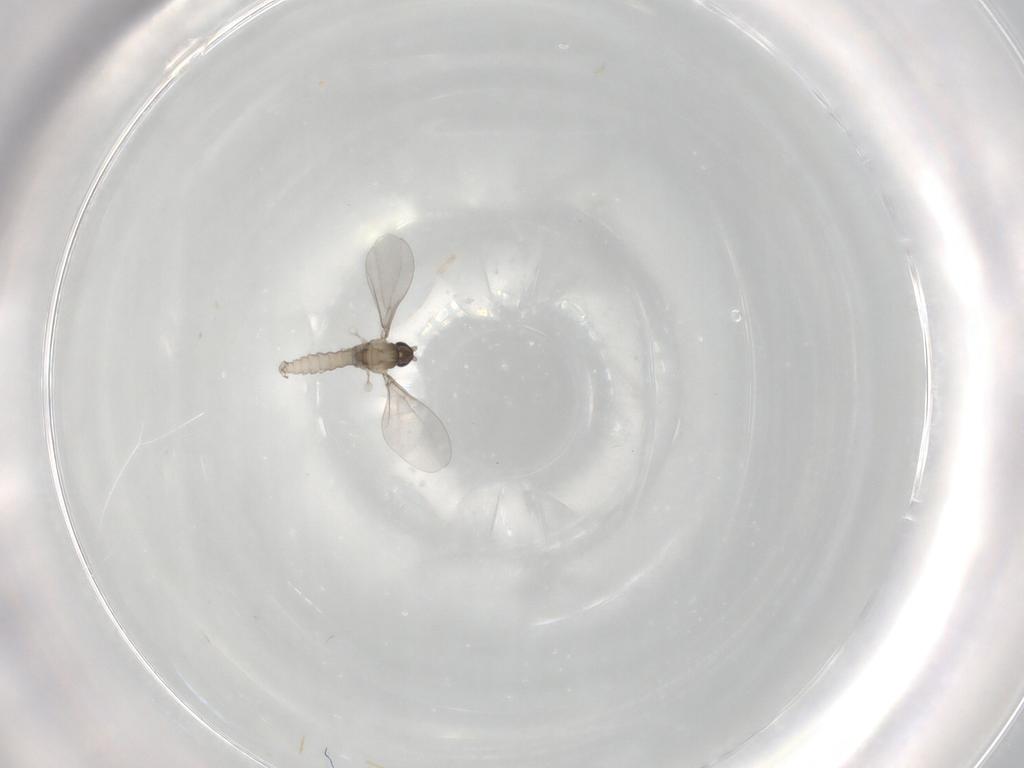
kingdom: Animalia
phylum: Arthropoda
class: Insecta
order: Diptera
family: Dolichopodidae
